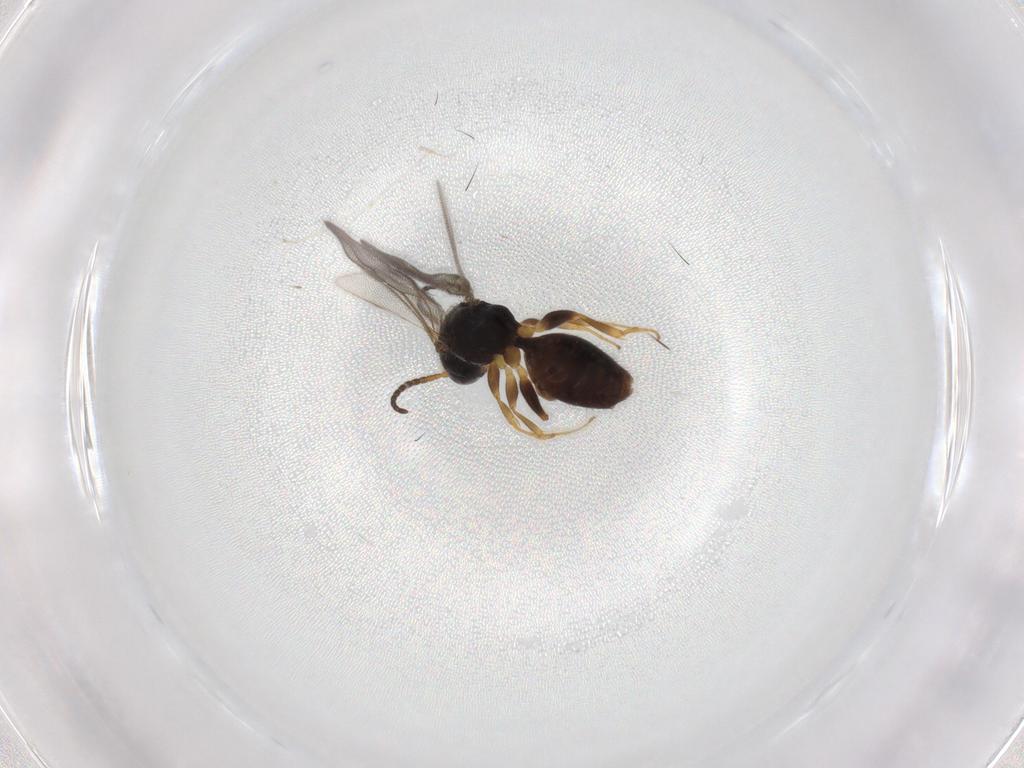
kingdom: Animalia
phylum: Arthropoda
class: Insecta
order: Hymenoptera
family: Bethylidae
